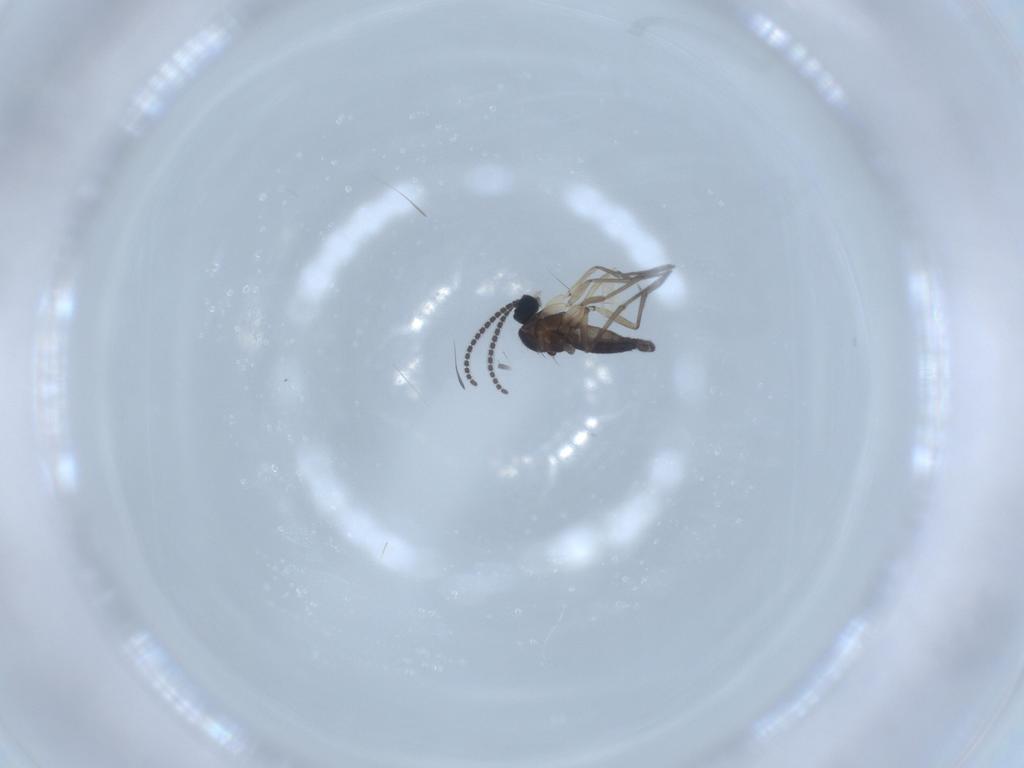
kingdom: Animalia
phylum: Arthropoda
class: Insecta
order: Diptera
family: Sciaridae
